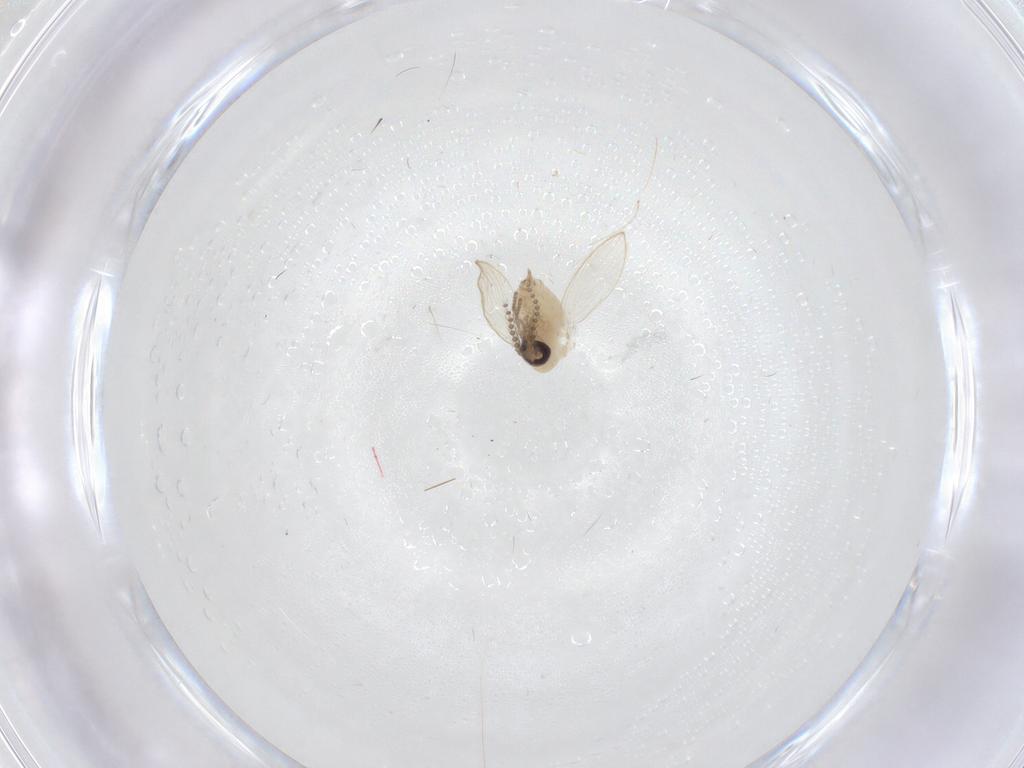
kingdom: Animalia
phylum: Arthropoda
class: Insecta
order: Diptera
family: Psychodidae
